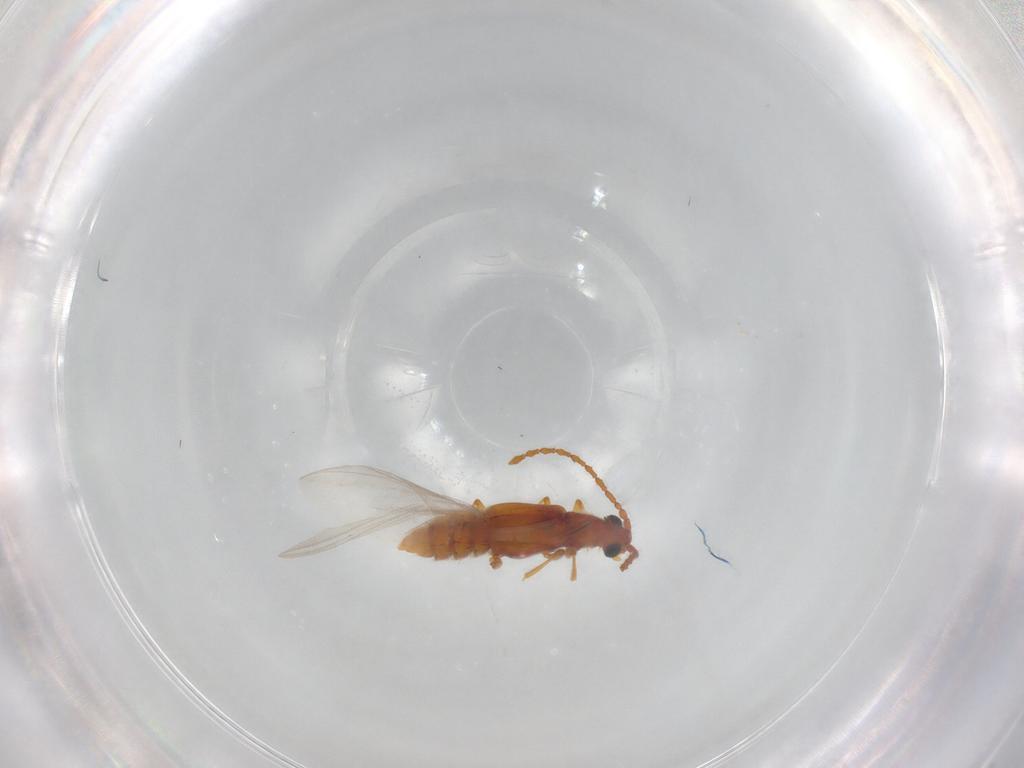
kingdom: Animalia
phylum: Arthropoda
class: Insecta
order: Coleoptera
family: Staphylinidae
